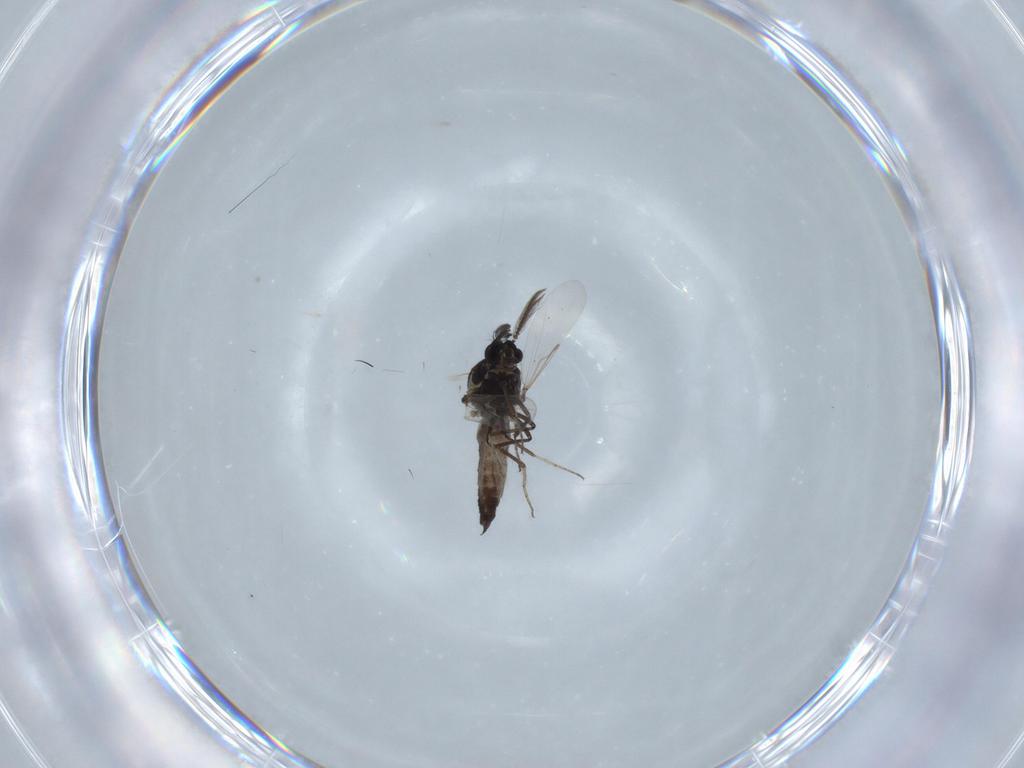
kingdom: Animalia
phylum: Arthropoda
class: Insecta
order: Diptera
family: Ceratopogonidae
